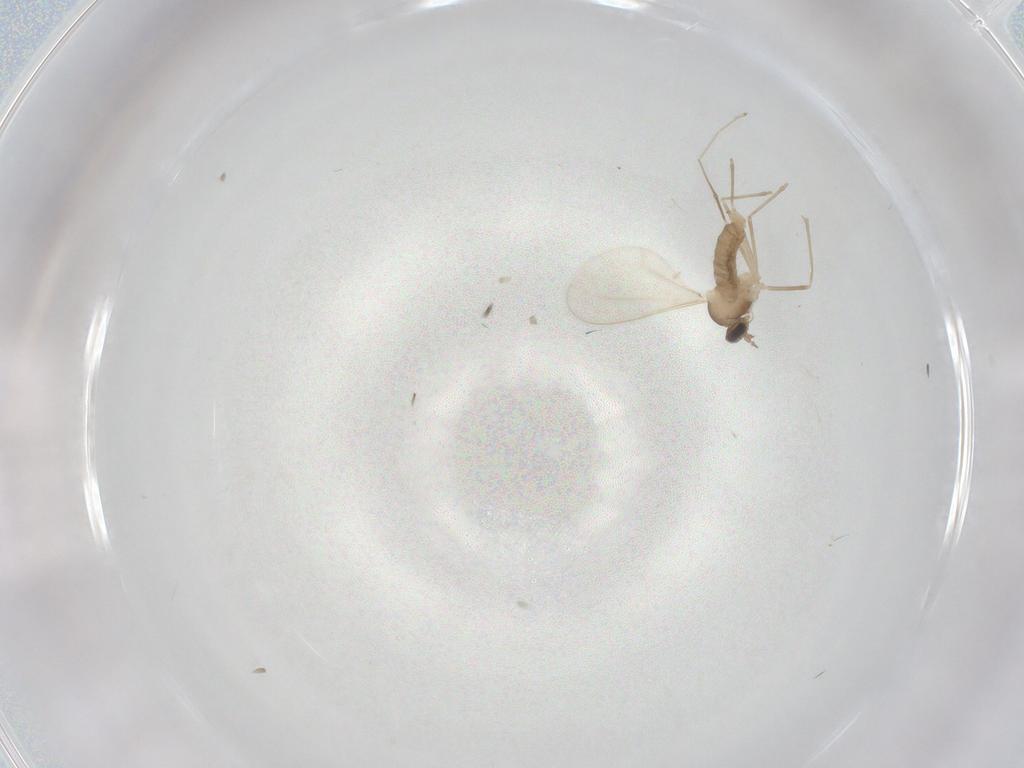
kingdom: Animalia
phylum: Arthropoda
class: Insecta
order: Diptera
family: Cecidomyiidae
